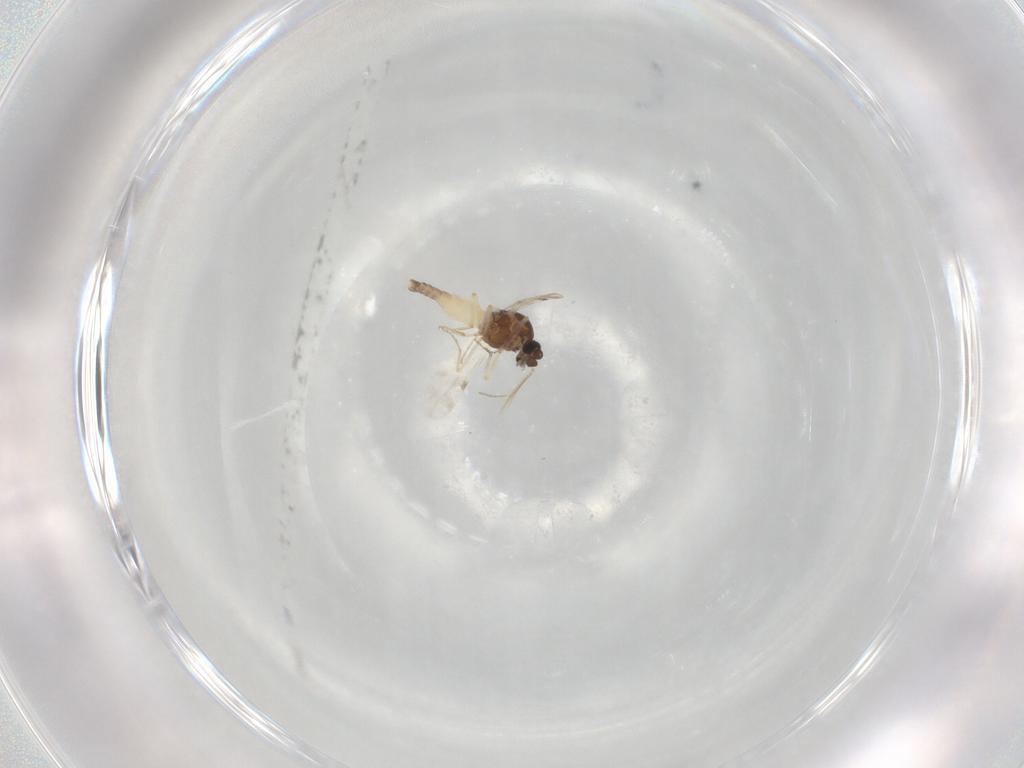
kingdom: Animalia
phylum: Arthropoda
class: Insecta
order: Diptera
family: Ceratopogonidae
